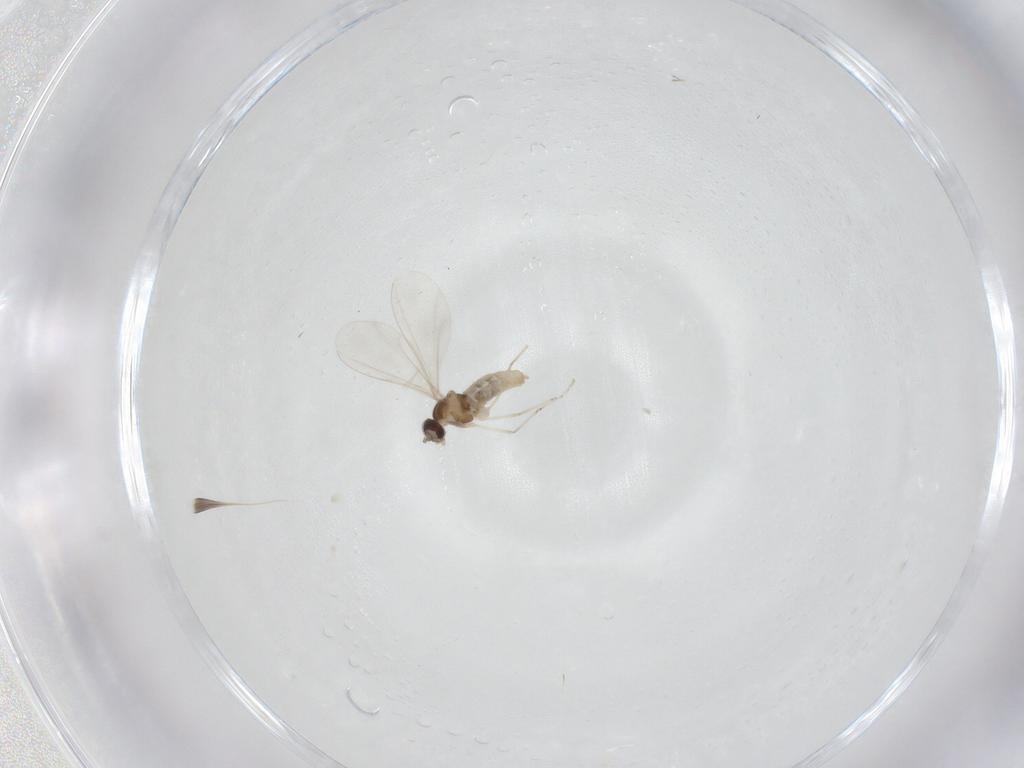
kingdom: Animalia
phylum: Arthropoda
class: Insecta
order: Diptera
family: Cecidomyiidae
